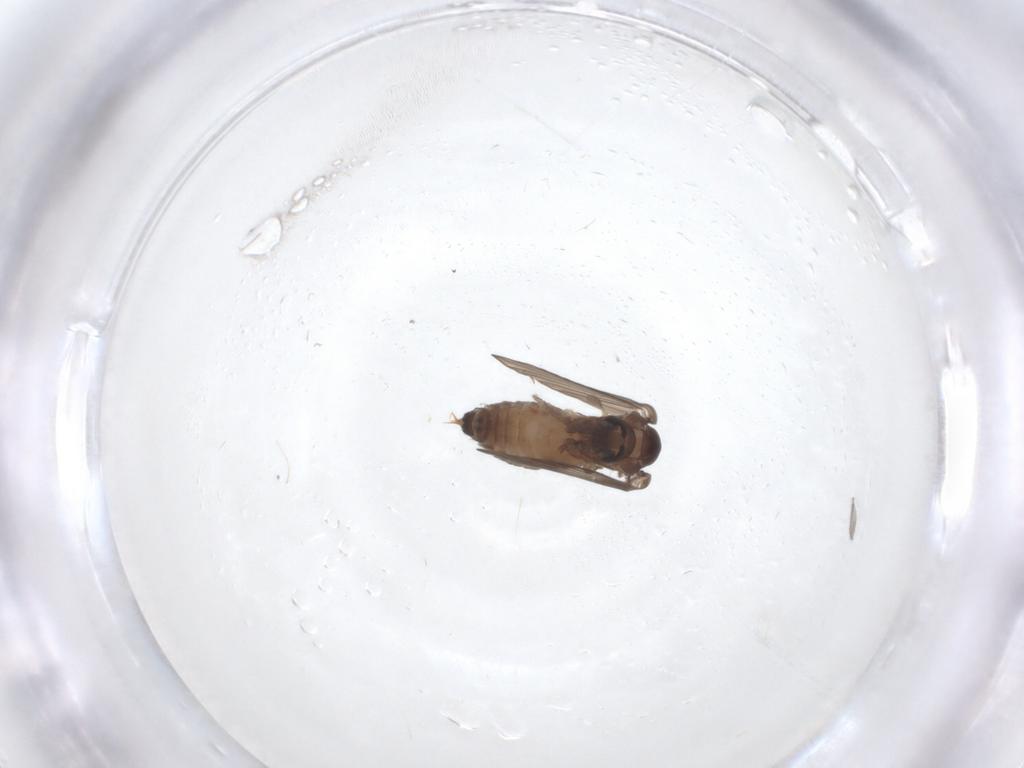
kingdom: Animalia
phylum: Arthropoda
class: Insecta
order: Diptera
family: Psychodidae
